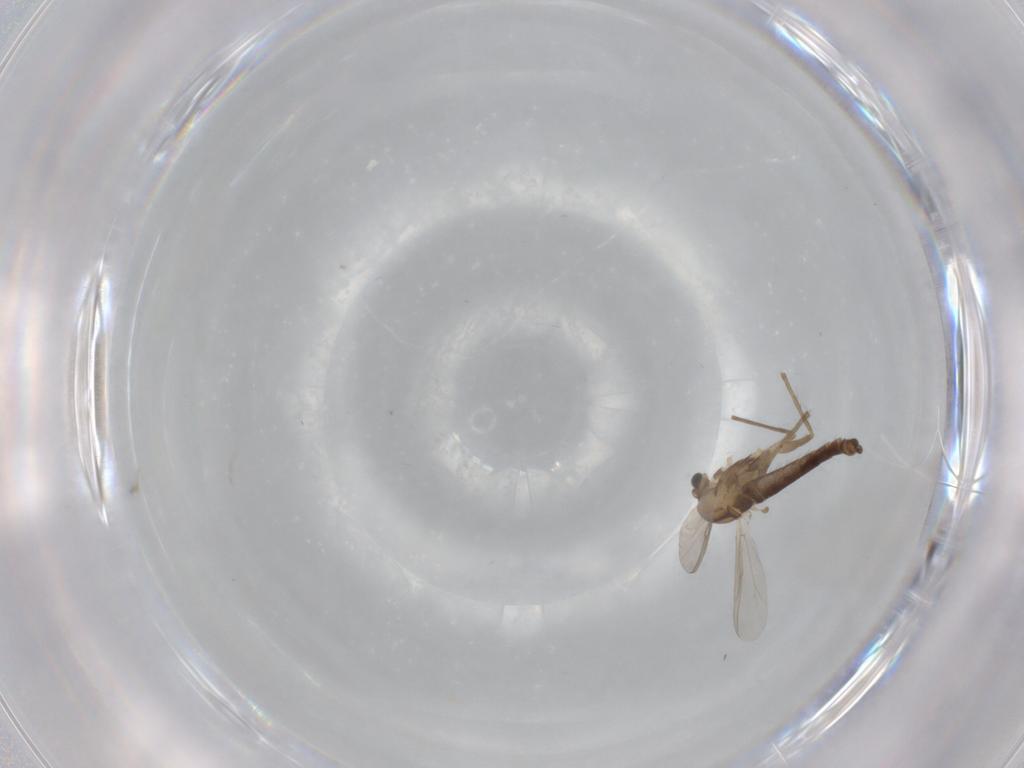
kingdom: Animalia
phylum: Arthropoda
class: Insecta
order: Diptera
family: Chironomidae
